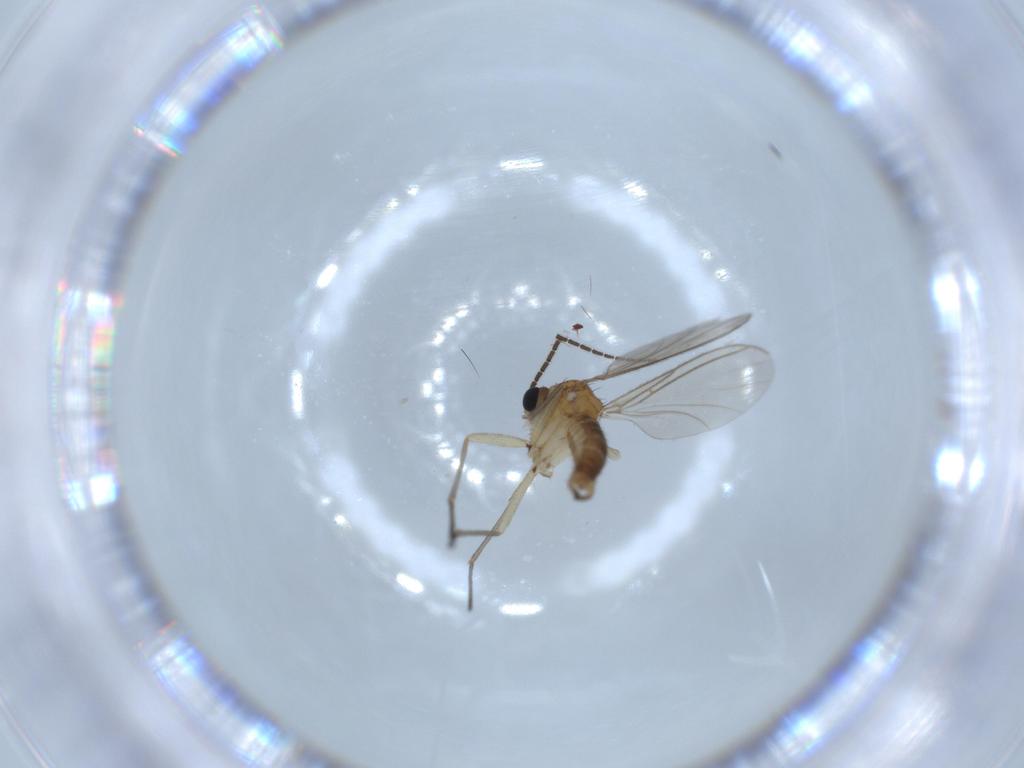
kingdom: Animalia
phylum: Arthropoda
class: Insecta
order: Diptera
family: Sciaridae
